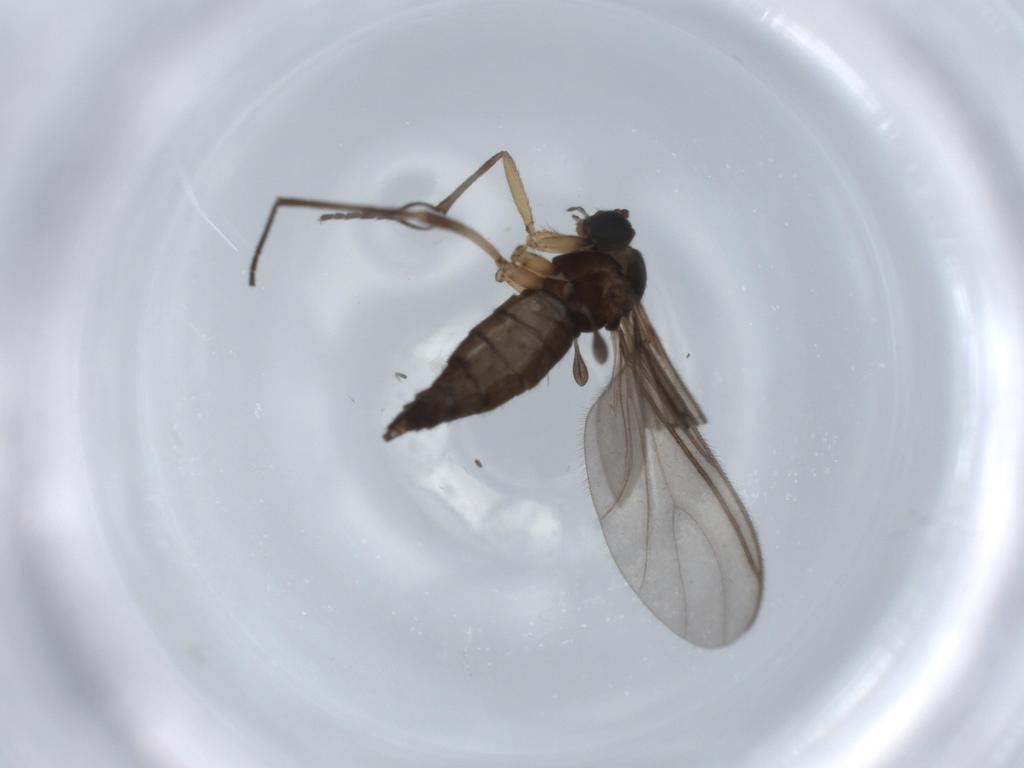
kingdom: Animalia
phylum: Arthropoda
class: Insecta
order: Diptera
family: Sciaridae
